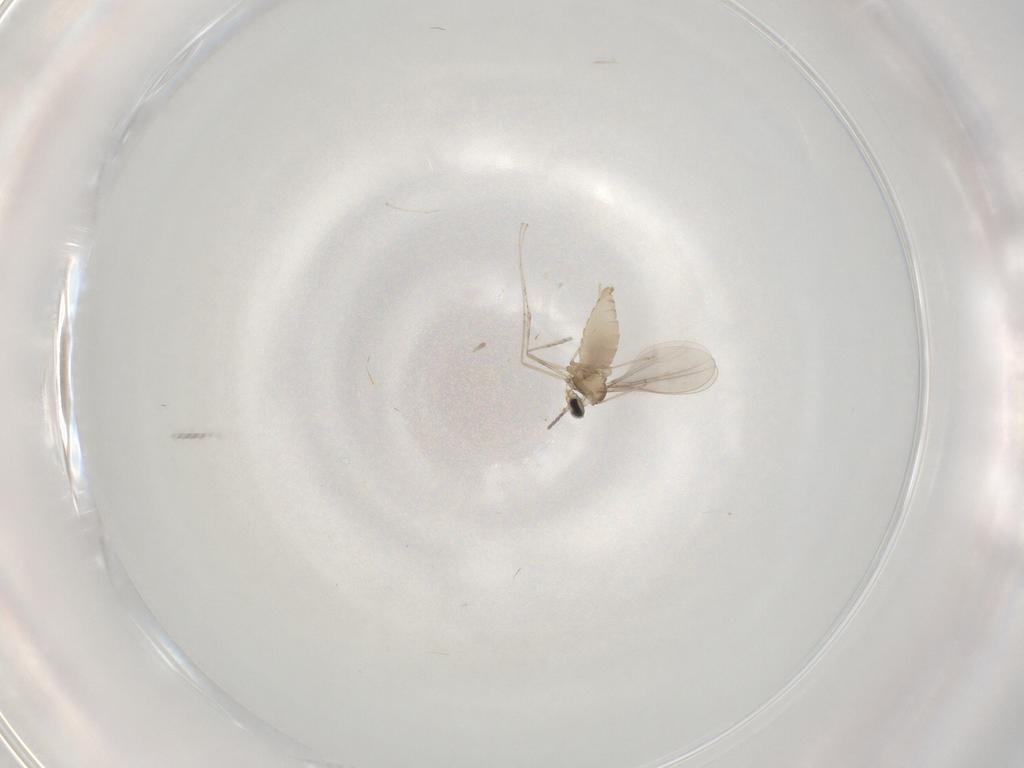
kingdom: Animalia
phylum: Arthropoda
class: Insecta
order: Diptera
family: Cecidomyiidae
